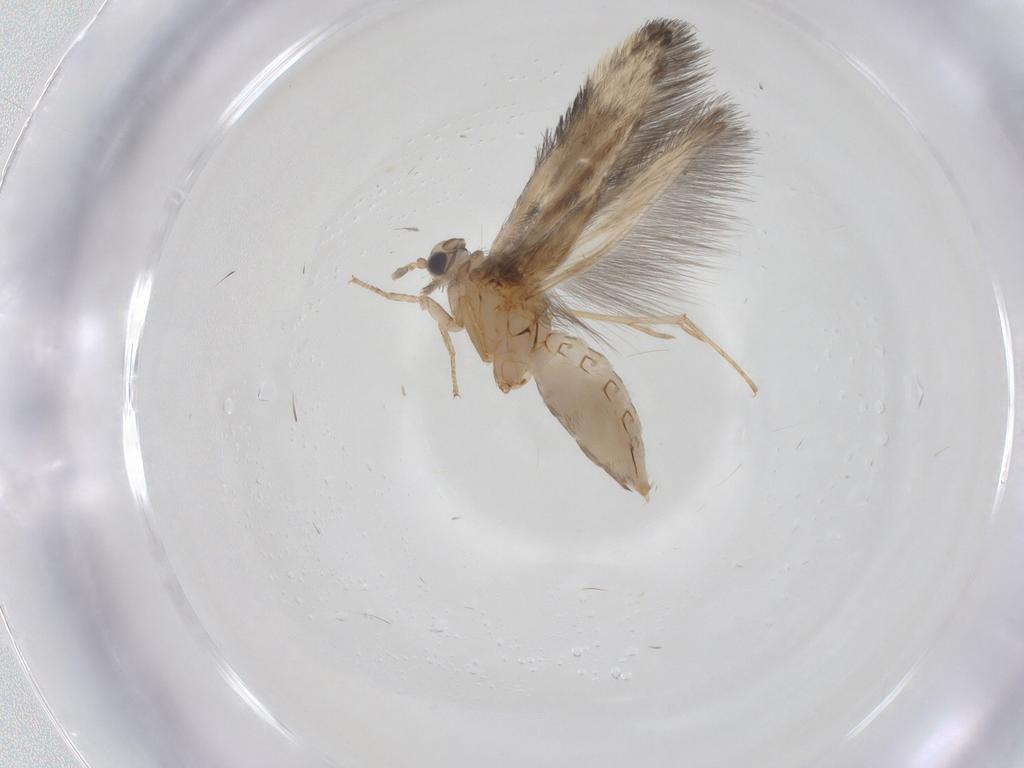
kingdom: Animalia
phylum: Arthropoda
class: Insecta
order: Trichoptera
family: Hydroptilidae
